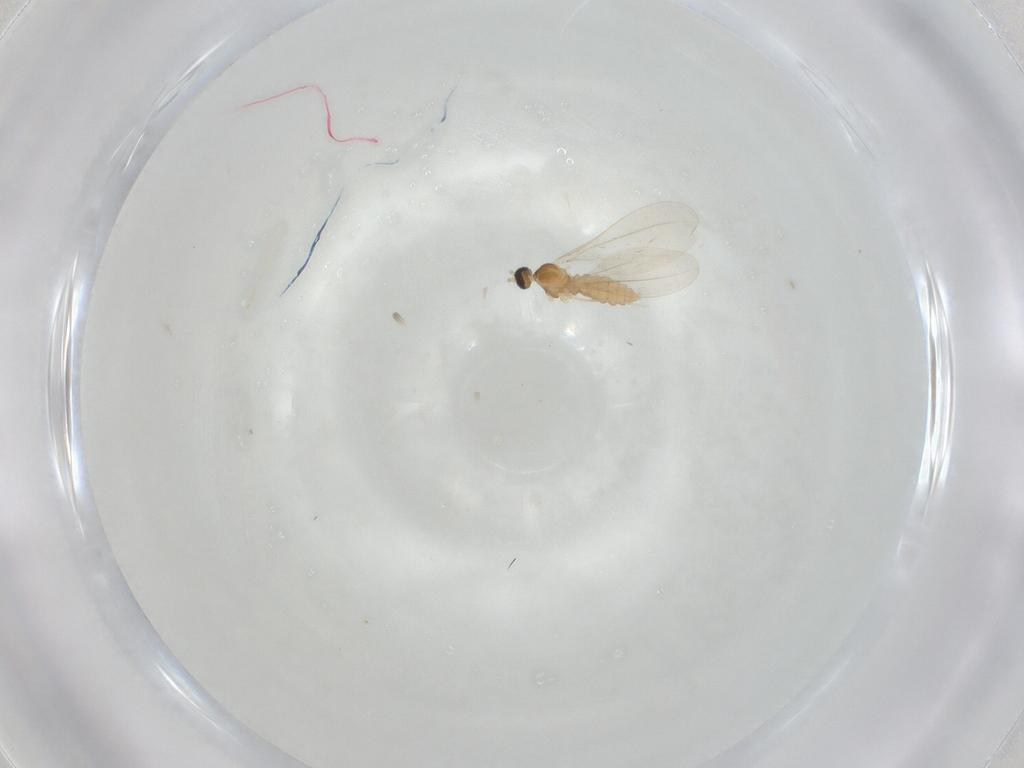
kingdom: Animalia
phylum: Arthropoda
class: Insecta
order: Diptera
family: Cecidomyiidae
